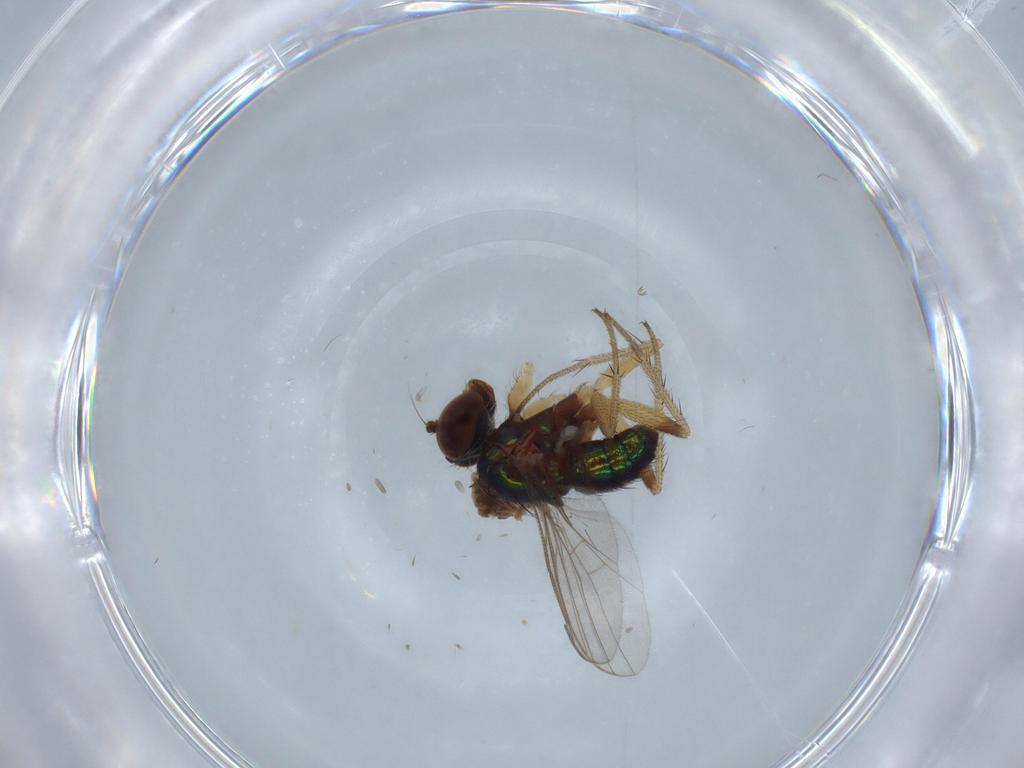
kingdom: Animalia
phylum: Arthropoda
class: Insecta
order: Diptera
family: Cecidomyiidae
